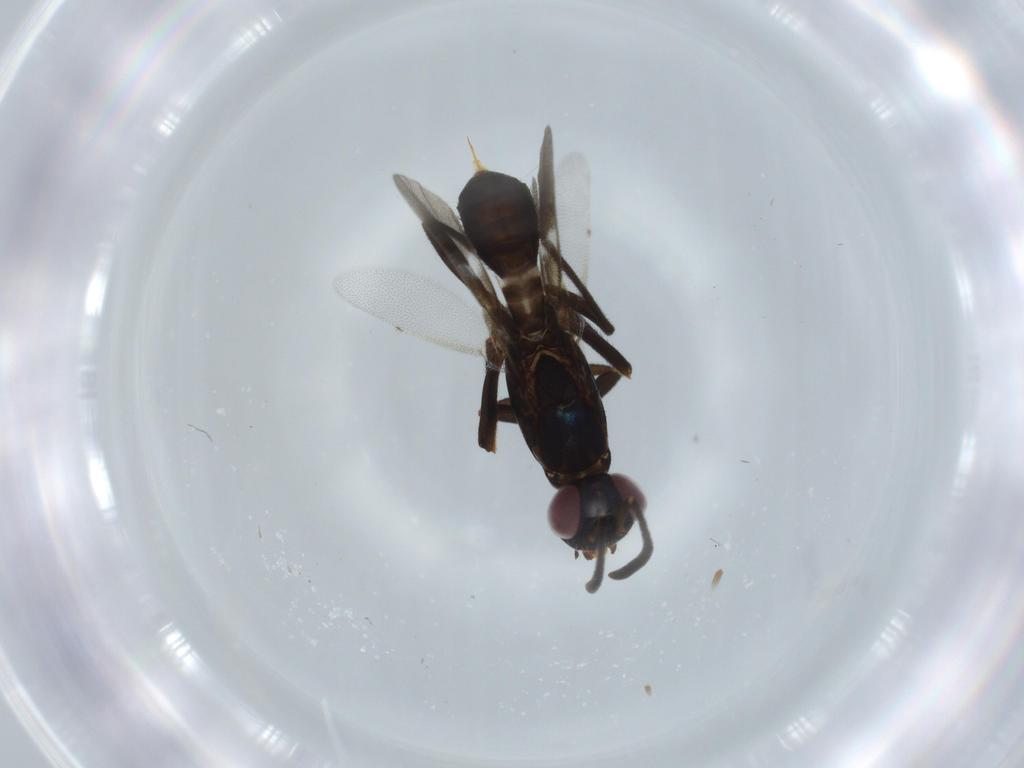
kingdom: Animalia
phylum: Arthropoda
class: Insecta
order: Hymenoptera
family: Eupelmidae
